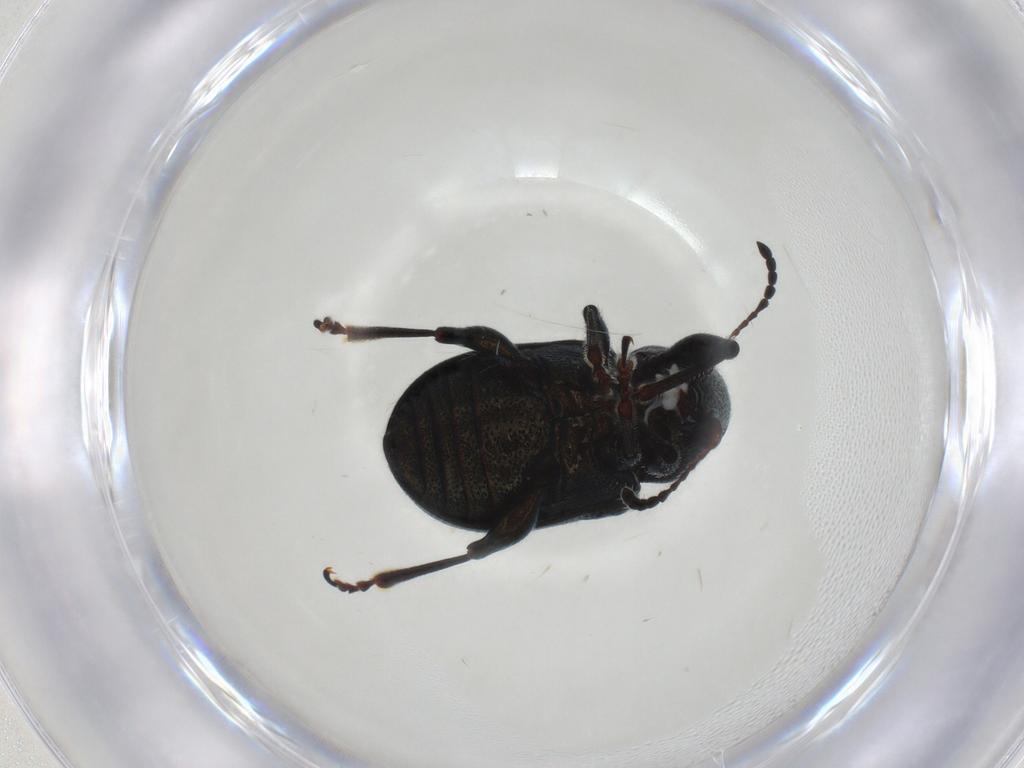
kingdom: Animalia
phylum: Arthropoda
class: Insecta
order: Coleoptera
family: Chrysomelidae
